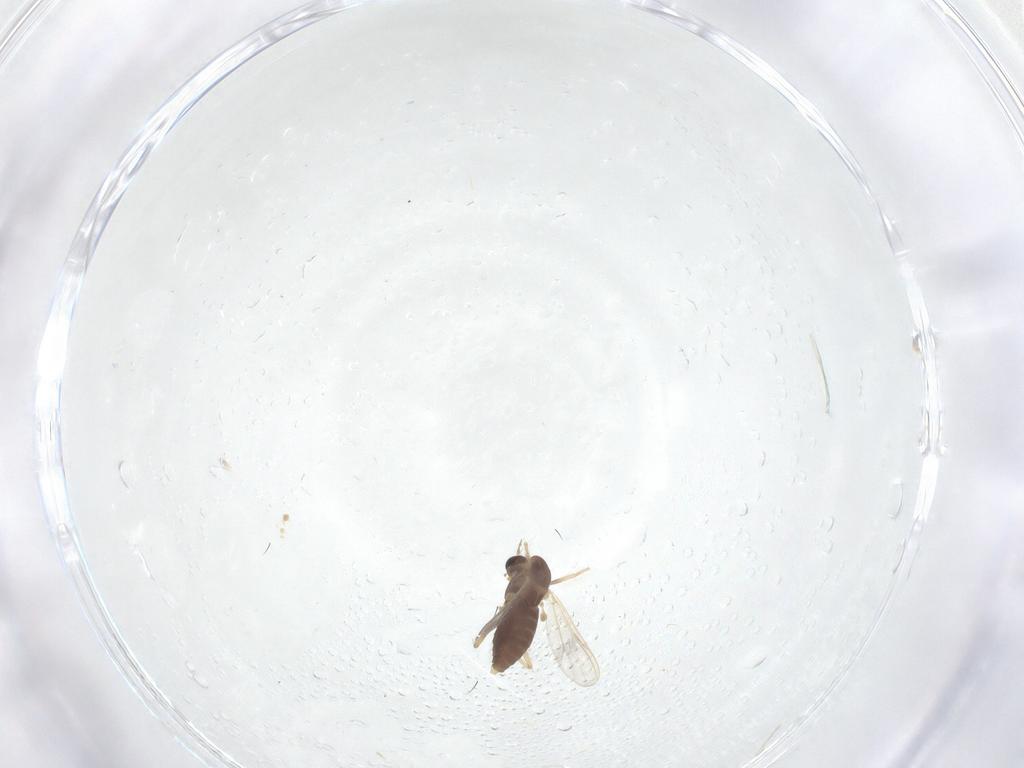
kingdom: Animalia
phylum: Arthropoda
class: Insecta
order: Diptera
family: Chironomidae
